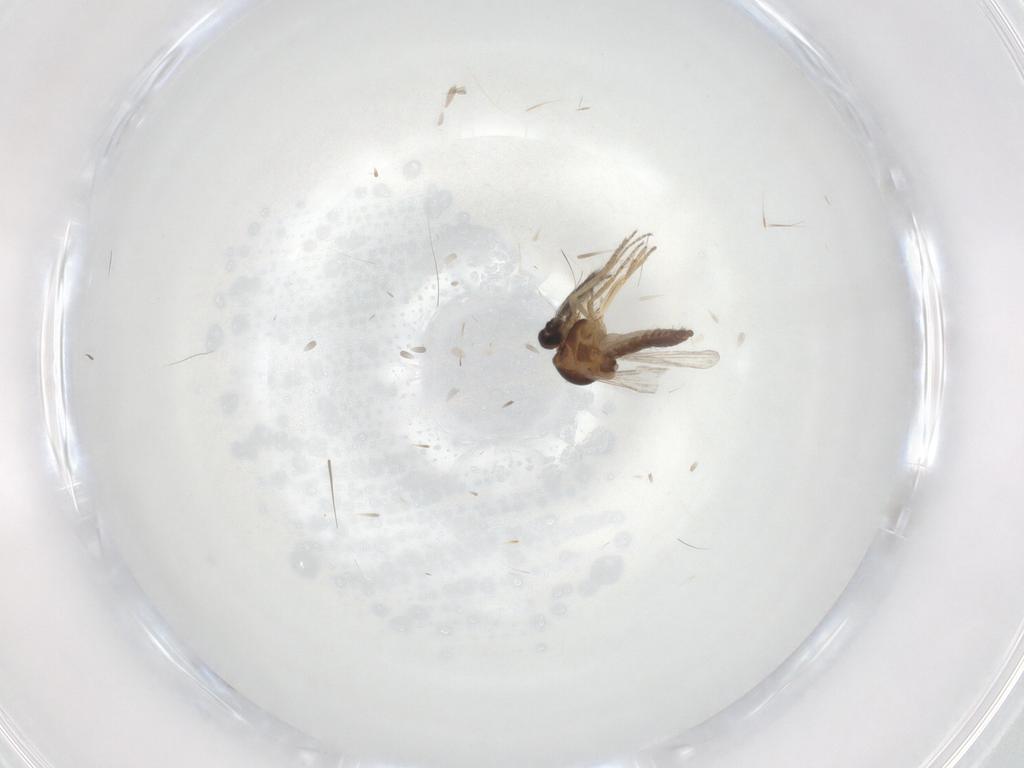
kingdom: Animalia
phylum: Arthropoda
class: Insecta
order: Diptera
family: Ceratopogonidae
